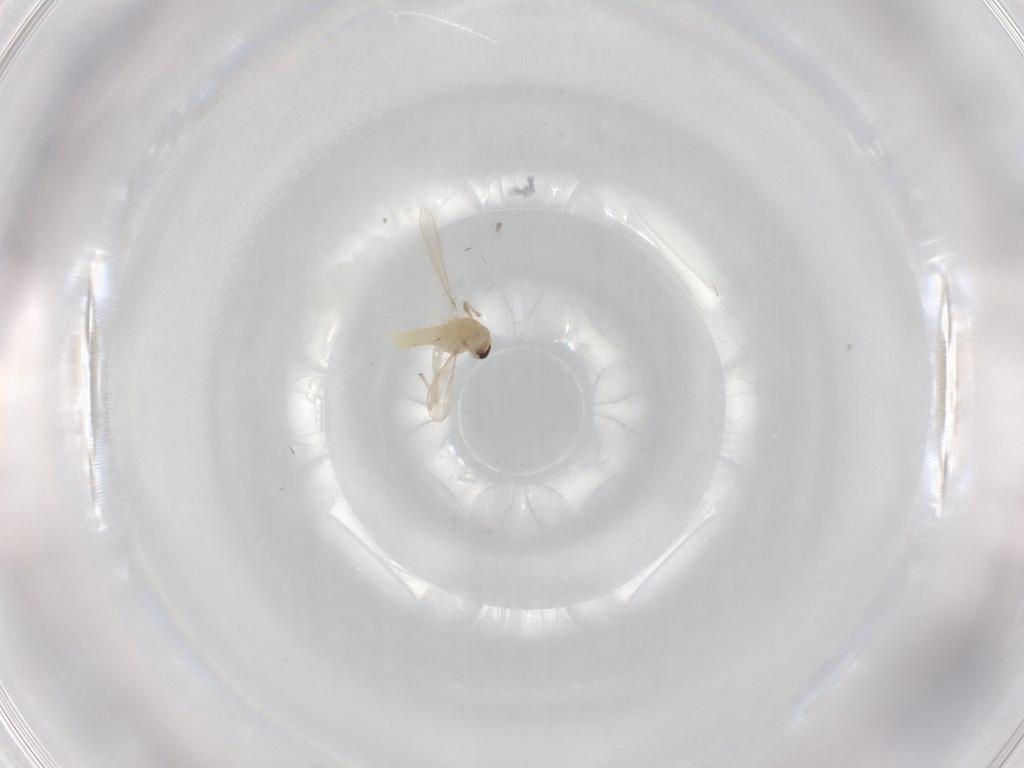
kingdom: Animalia
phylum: Arthropoda
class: Insecta
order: Diptera
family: Chironomidae
